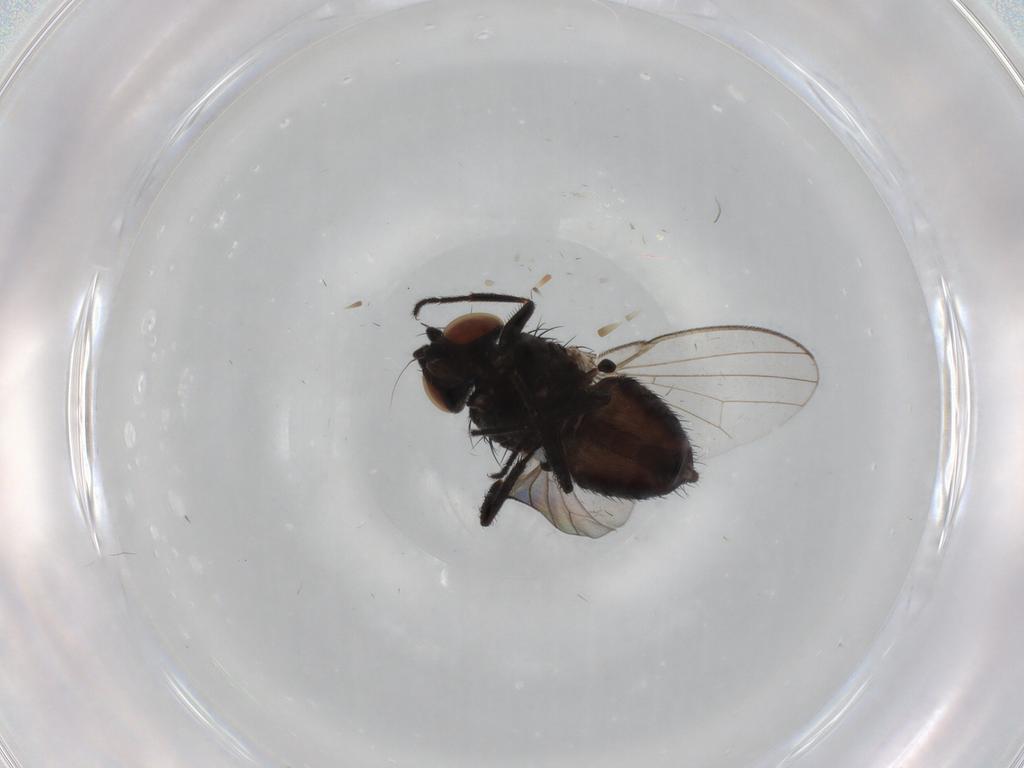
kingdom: Animalia
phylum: Arthropoda
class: Insecta
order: Diptera
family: Milichiidae
